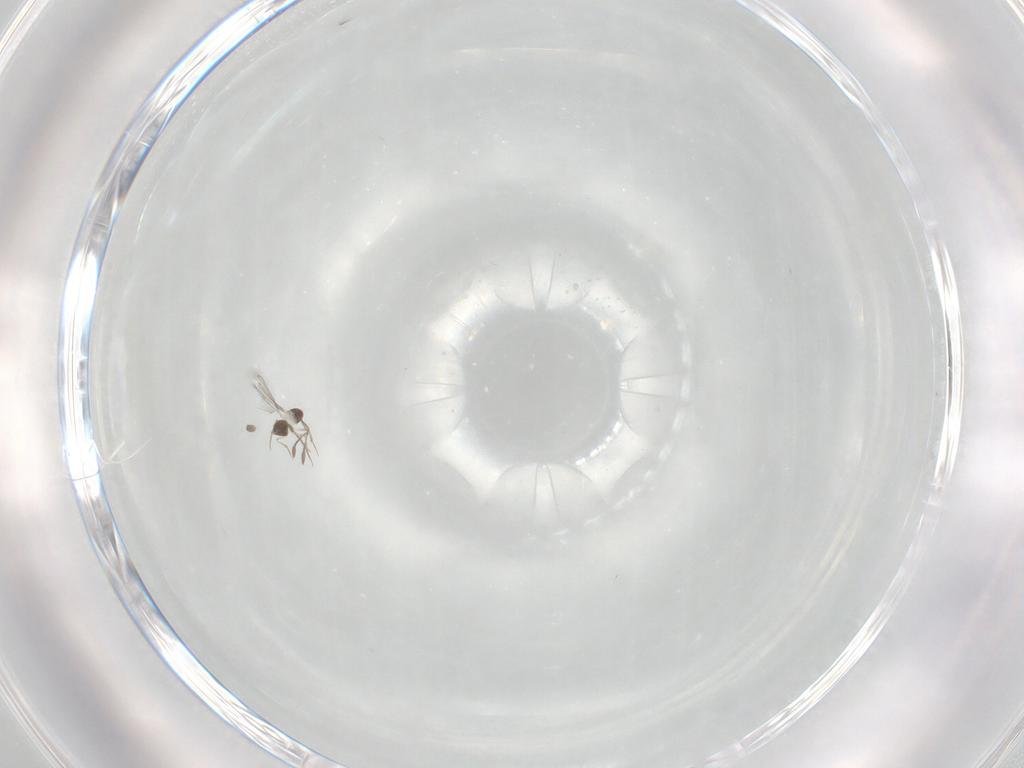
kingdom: Animalia
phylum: Arthropoda
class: Insecta
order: Hymenoptera
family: Mymaridae
